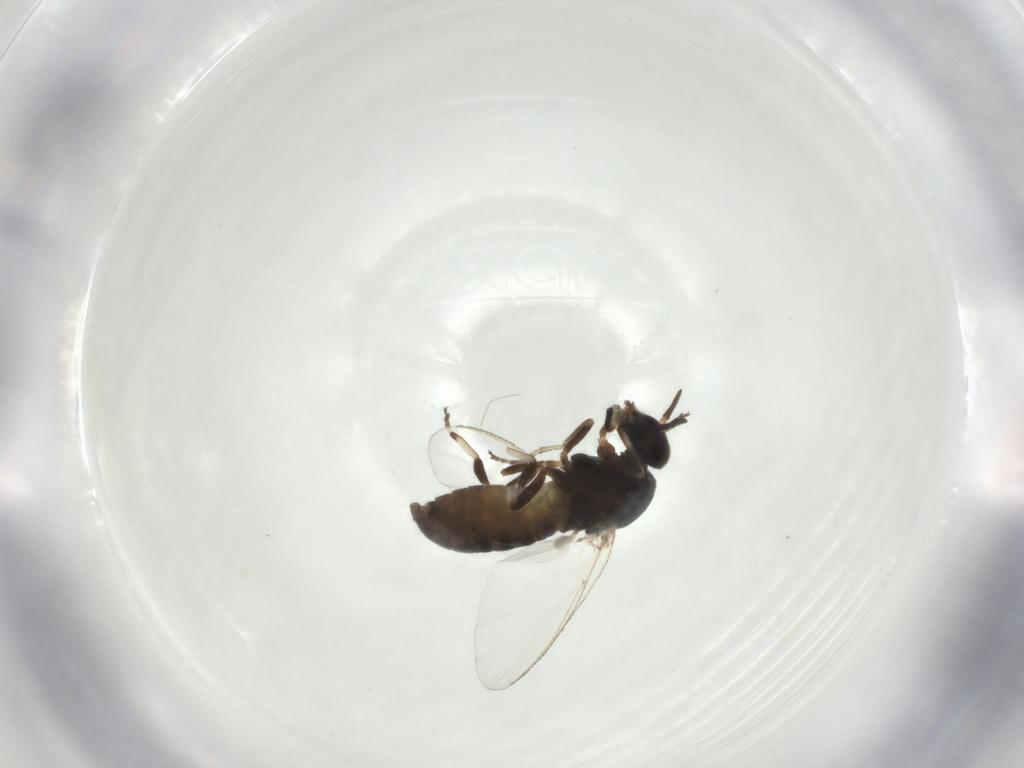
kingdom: Animalia
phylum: Arthropoda
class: Insecta
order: Diptera
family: Simuliidae
